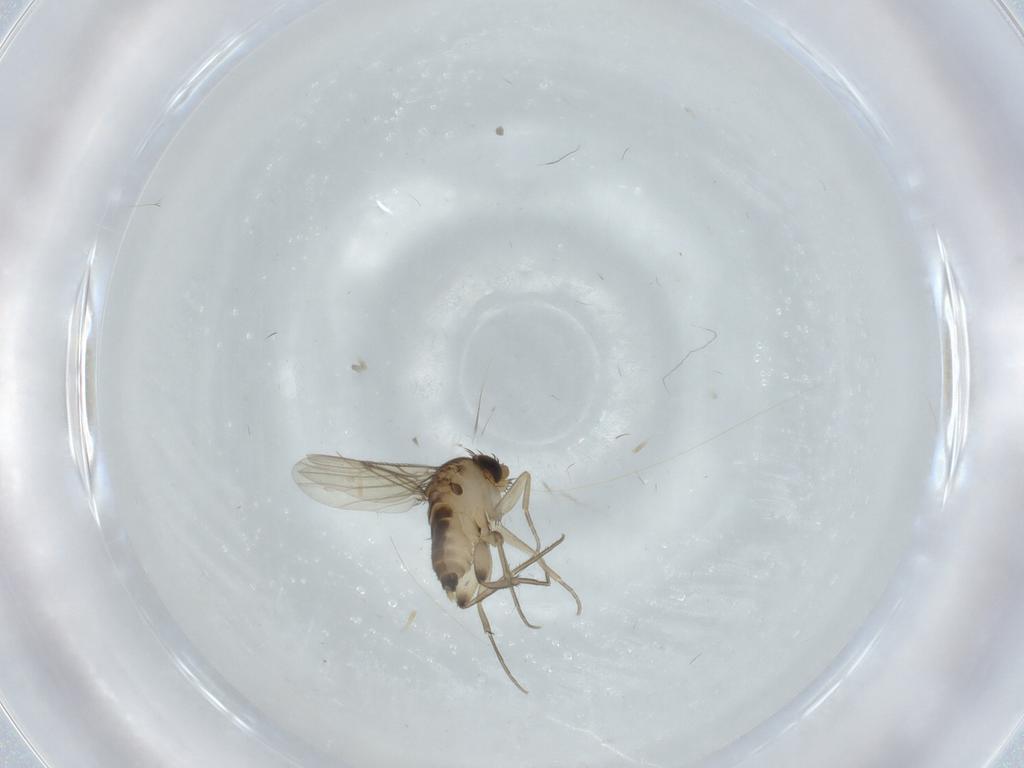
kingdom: Animalia
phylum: Arthropoda
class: Insecta
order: Diptera
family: Phoridae
